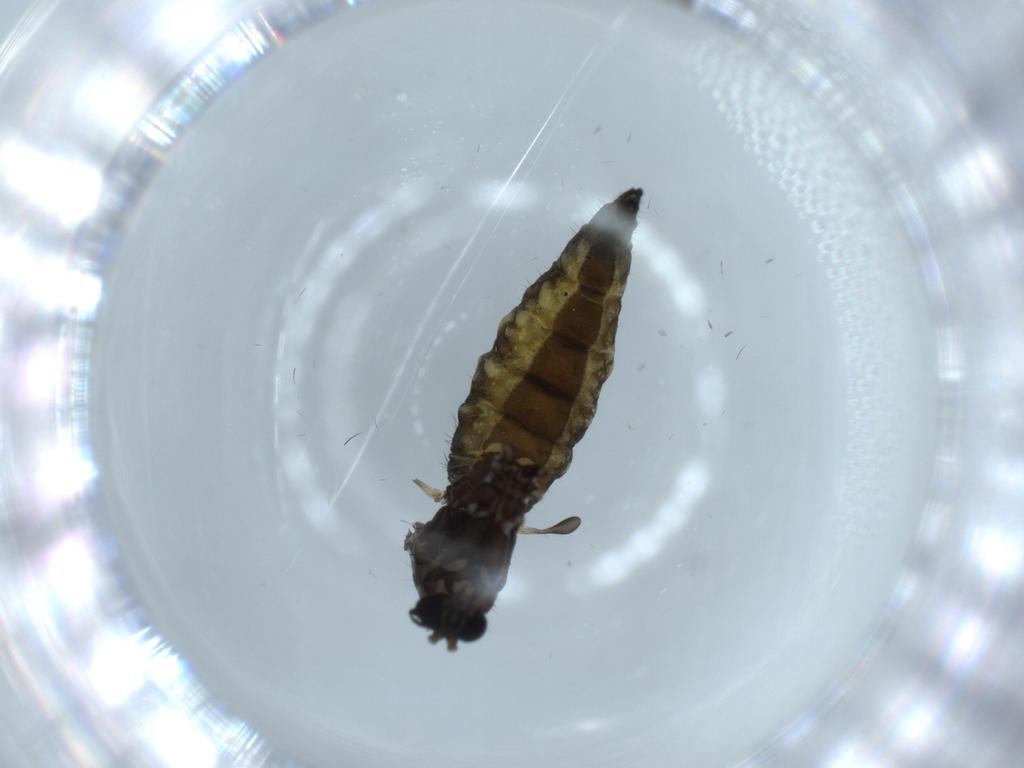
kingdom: Animalia
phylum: Arthropoda
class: Insecta
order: Diptera
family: Sciaridae
